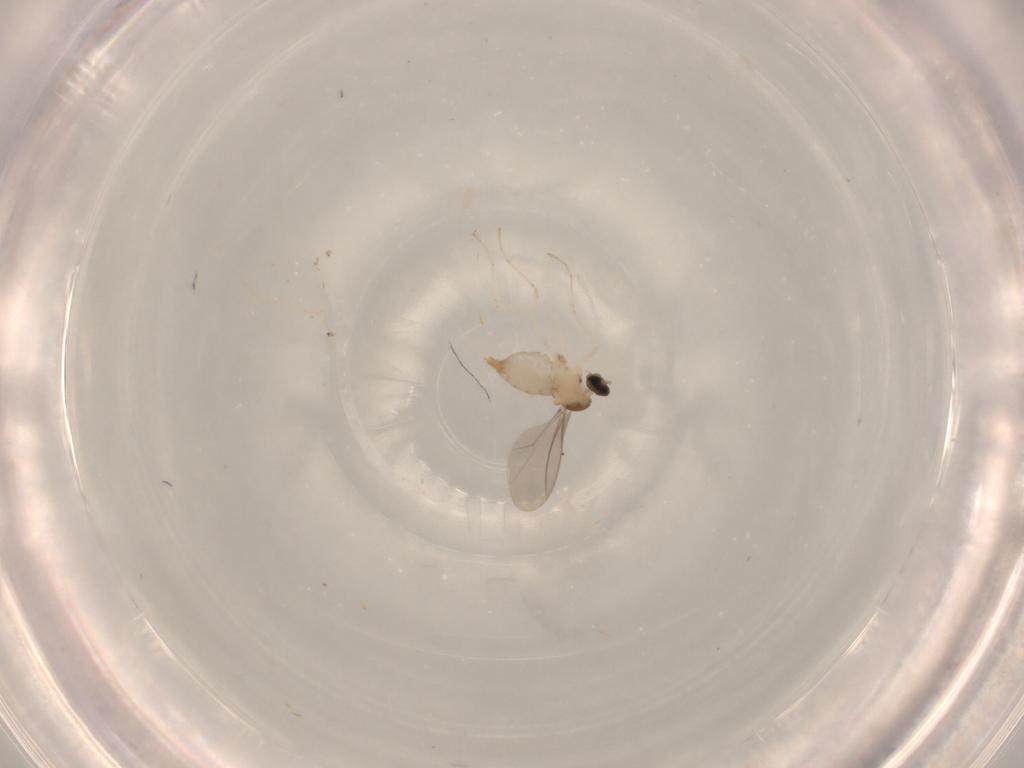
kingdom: Animalia
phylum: Arthropoda
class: Insecta
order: Diptera
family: Cecidomyiidae
